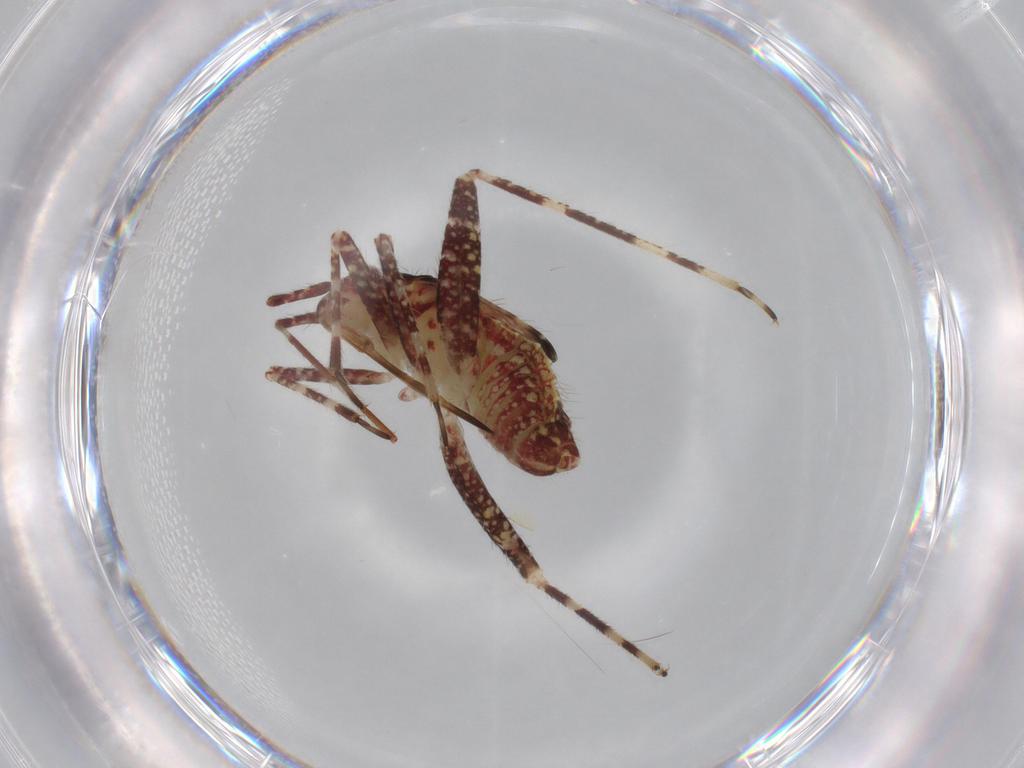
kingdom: Animalia
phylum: Arthropoda
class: Insecta
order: Hemiptera
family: Miridae
